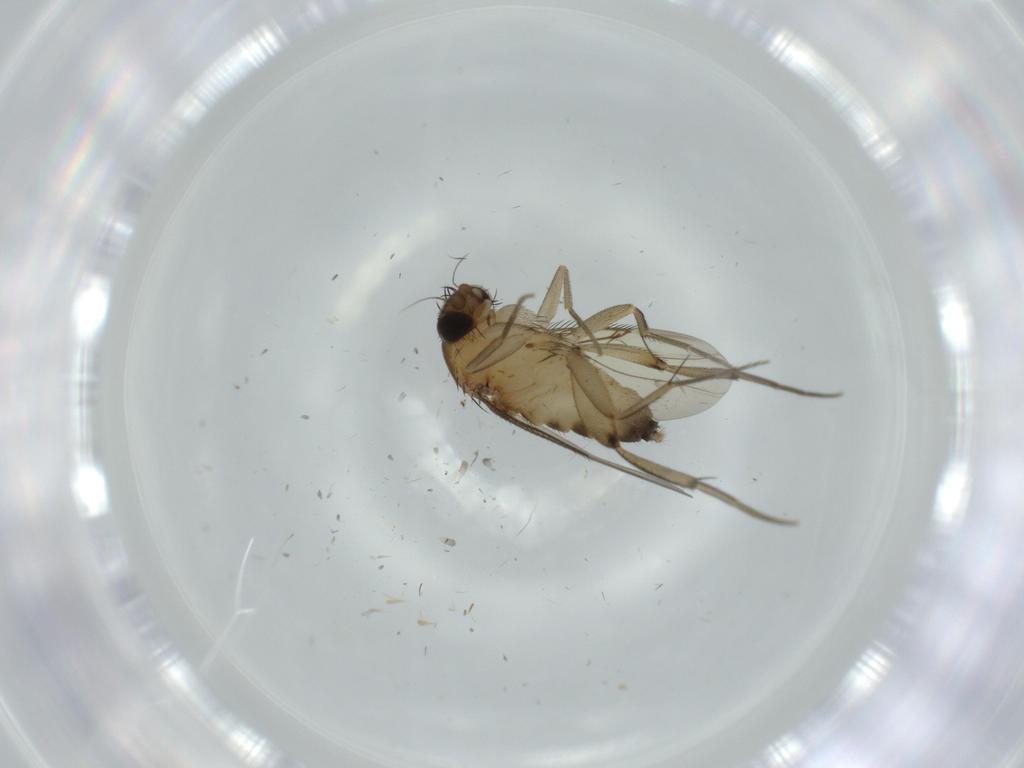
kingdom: Animalia
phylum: Arthropoda
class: Insecta
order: Diptera
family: Phoridae
